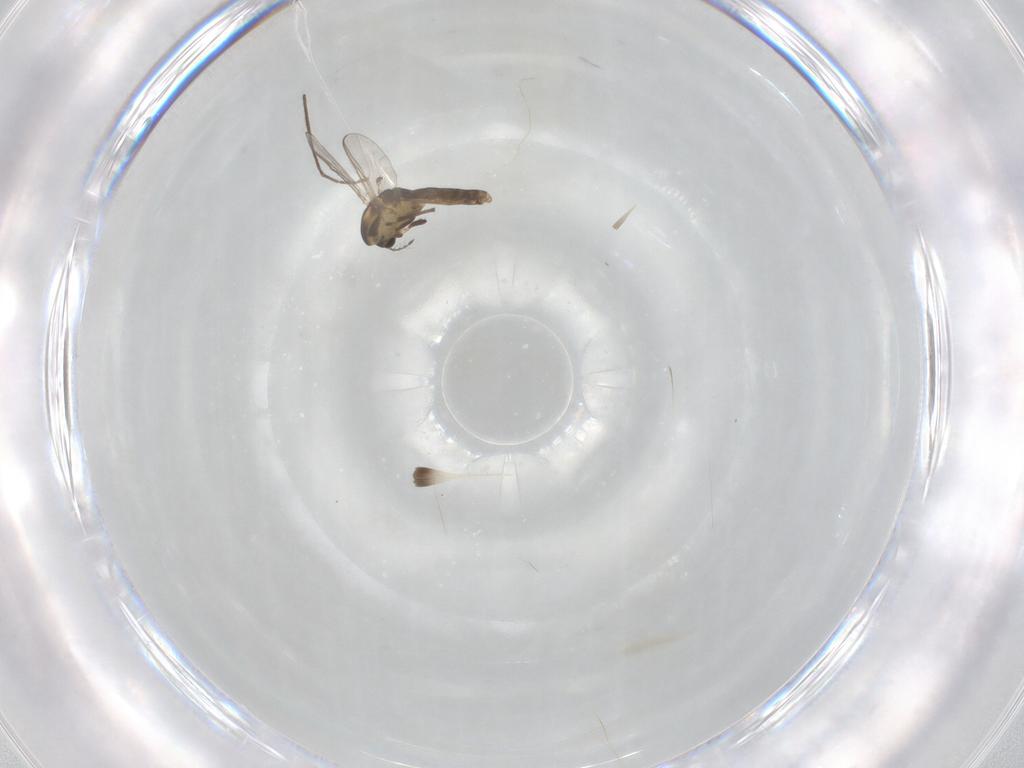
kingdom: Animalia
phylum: Arthropoda
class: Insecta
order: Diptera
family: Chironomidae
